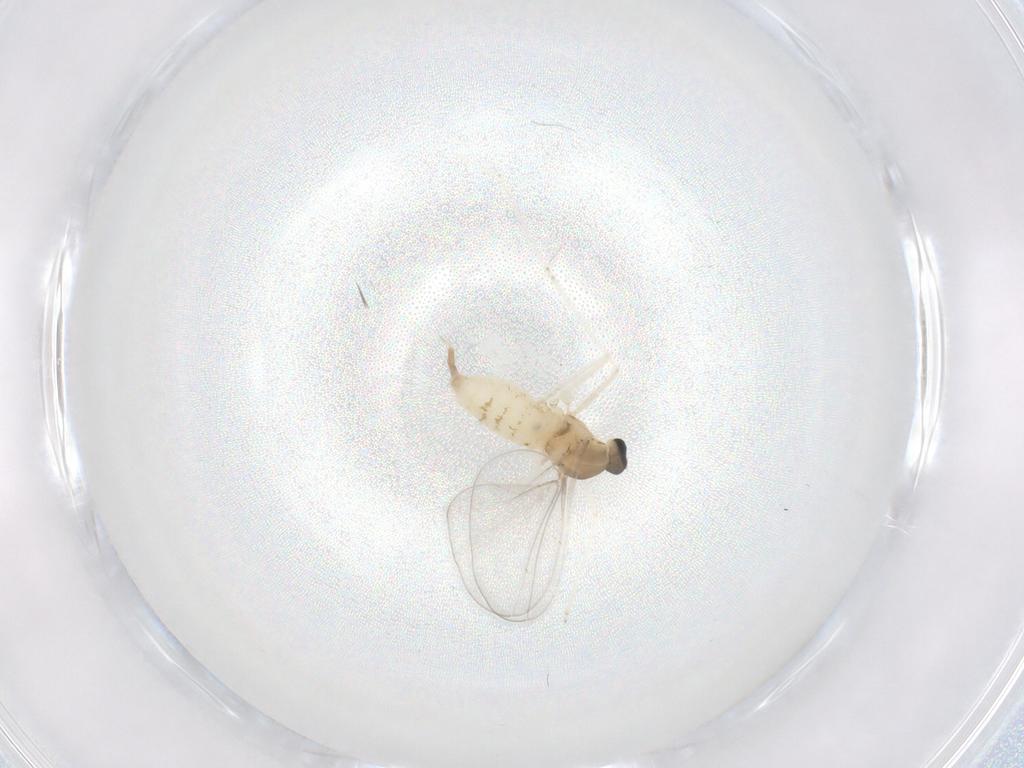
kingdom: Animalia
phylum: Arthropoda
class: Insecta
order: Diptera
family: Cecidomyiidae
